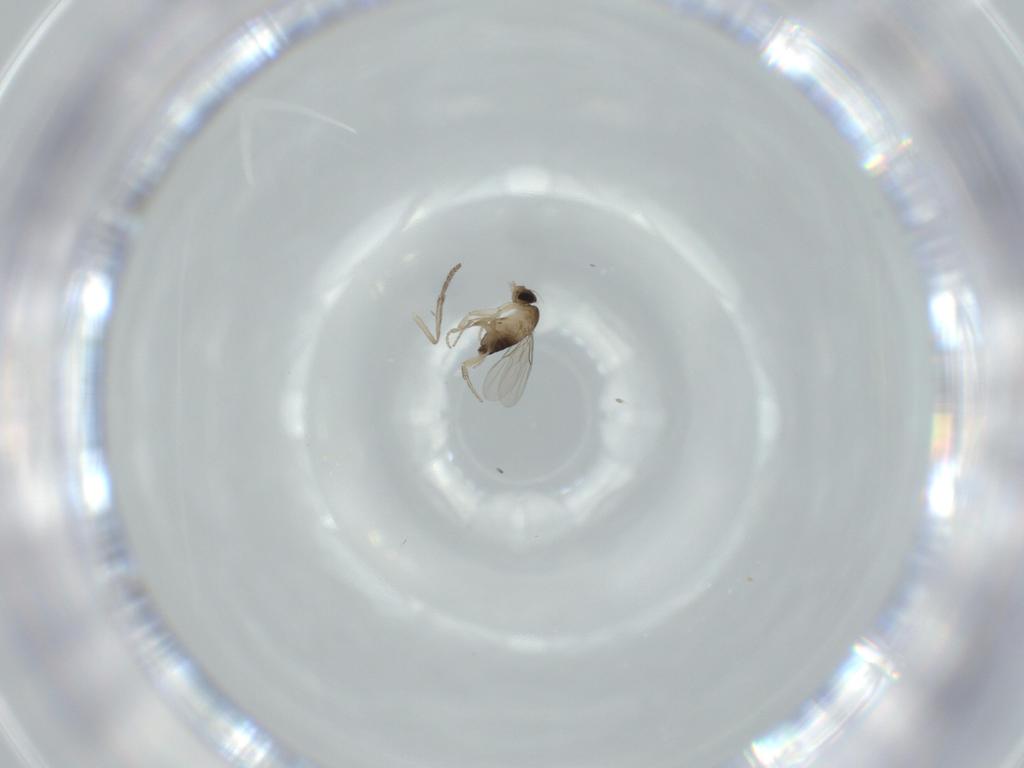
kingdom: Animalia
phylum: Arthropoda
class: Insecta
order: Diptera
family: Phoridae
